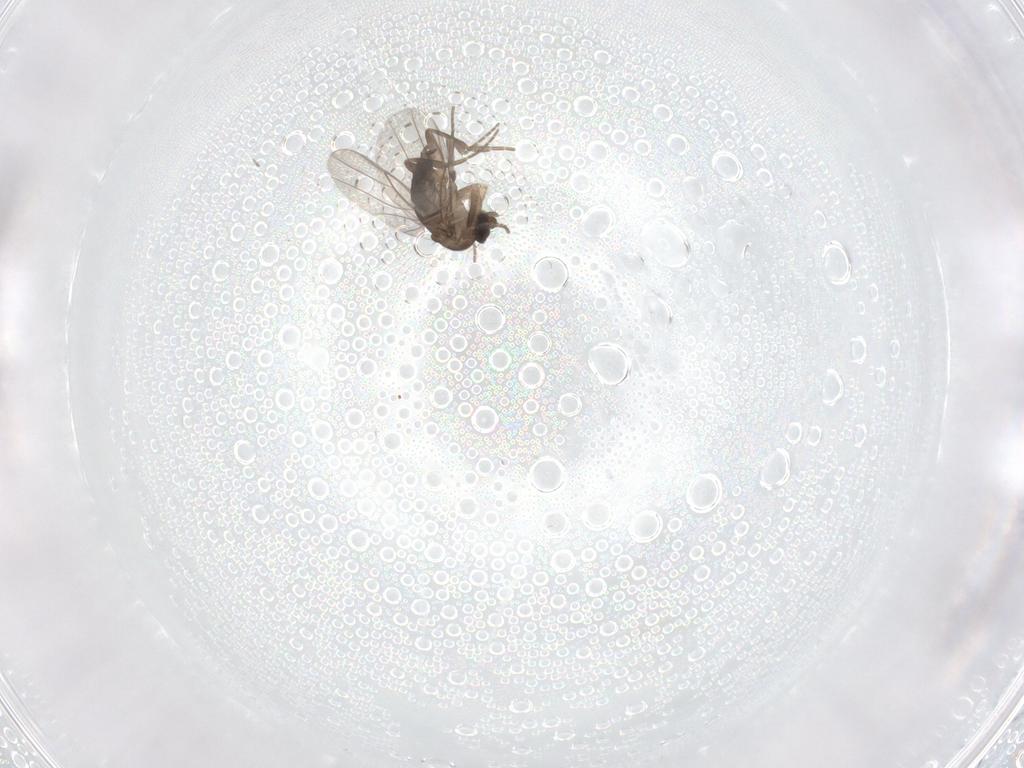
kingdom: Animalia
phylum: Arthropoda
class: Insecta
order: Diptera
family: Phoridae
